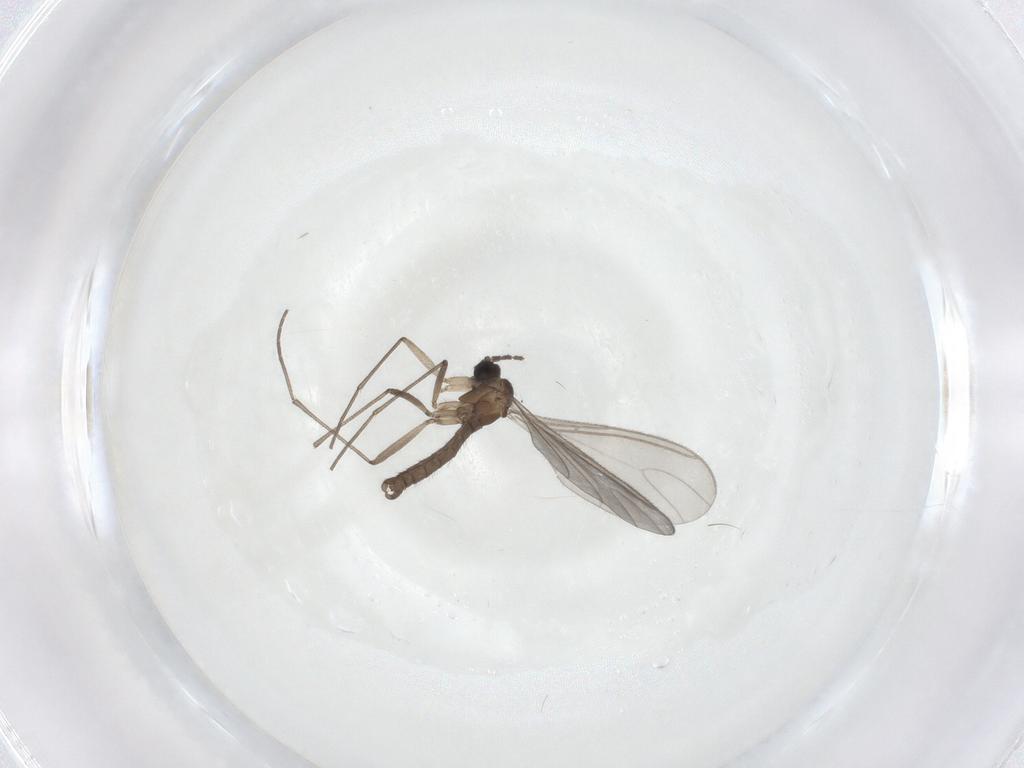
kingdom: Animalia
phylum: Arthropoda
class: Insecta
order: Diptera
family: Sciaridae
